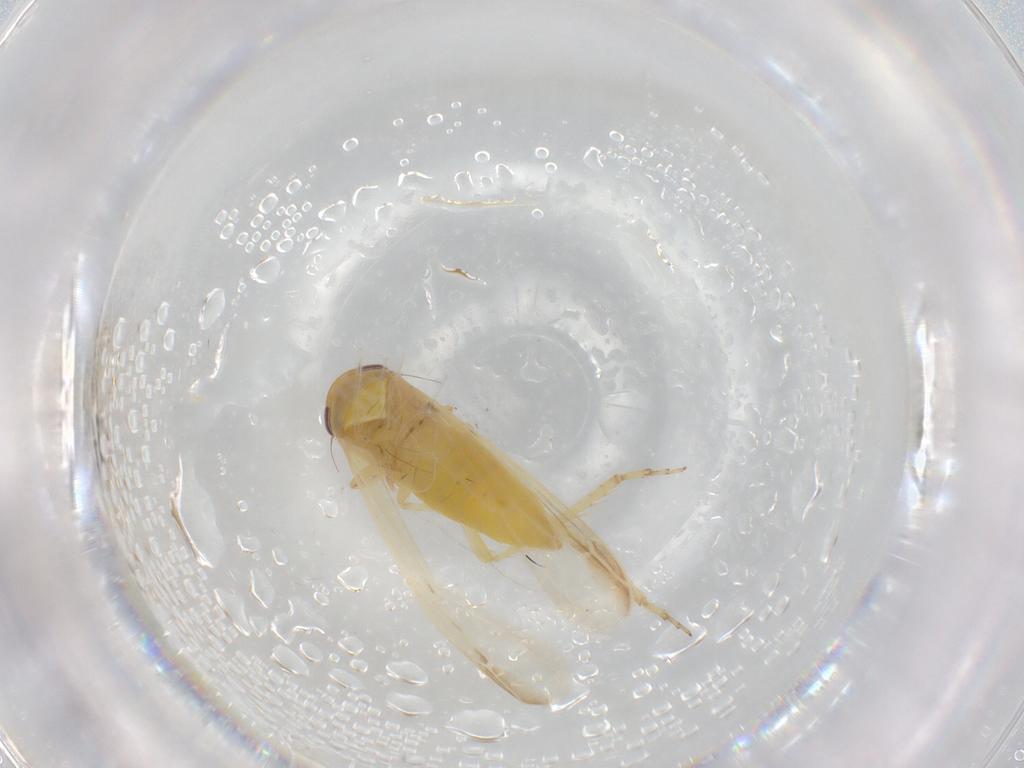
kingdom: Animalia
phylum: Arthropoda
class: Insecta
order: Hemiptera
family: Cicadellidae
